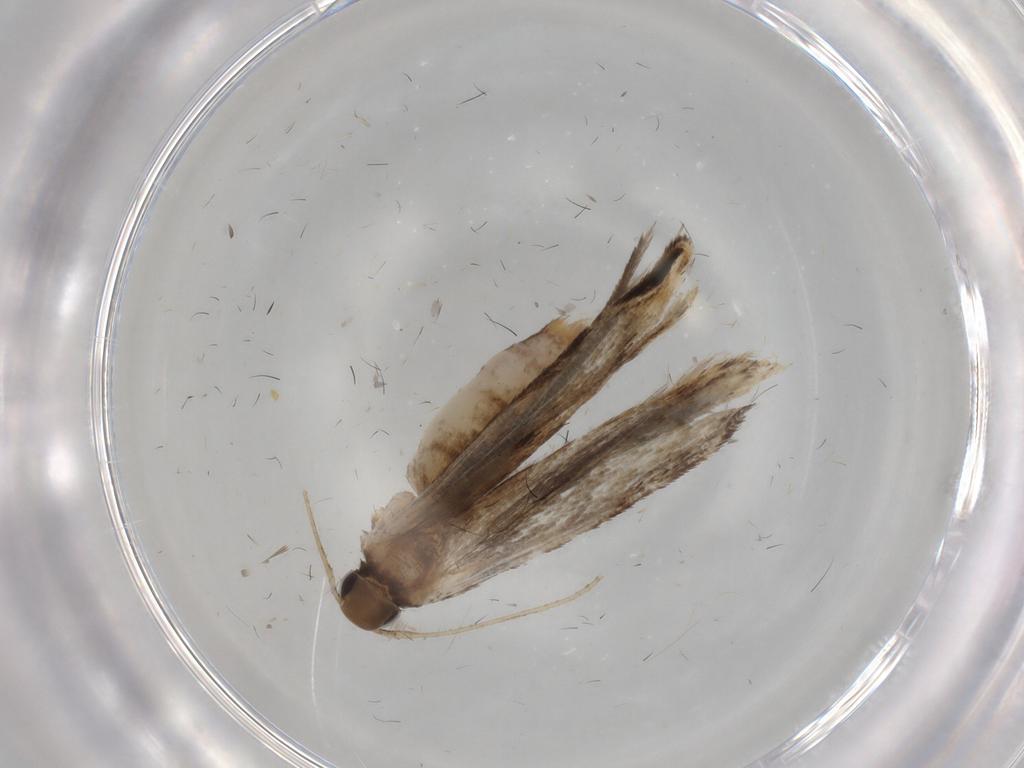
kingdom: Animalia
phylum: Arthropoda
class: Insecta
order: Lepidoptera
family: Gelechiidae
